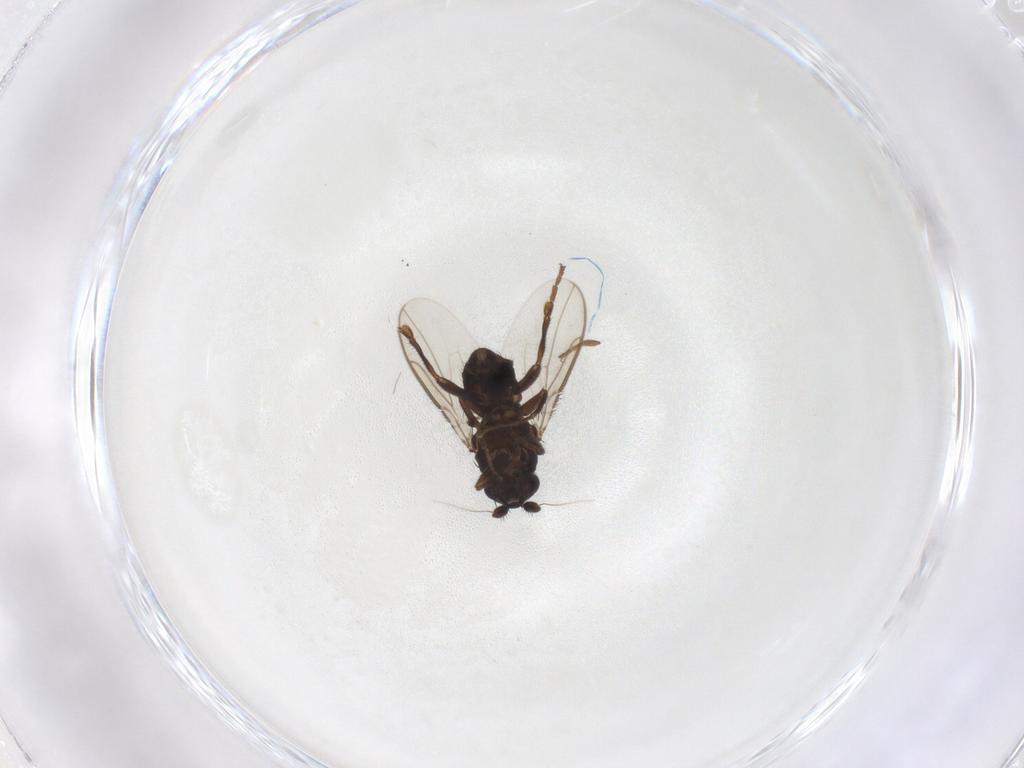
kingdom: Animalia
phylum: Arthropoda
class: Insecta
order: Diptera
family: Sphaeroceridae
